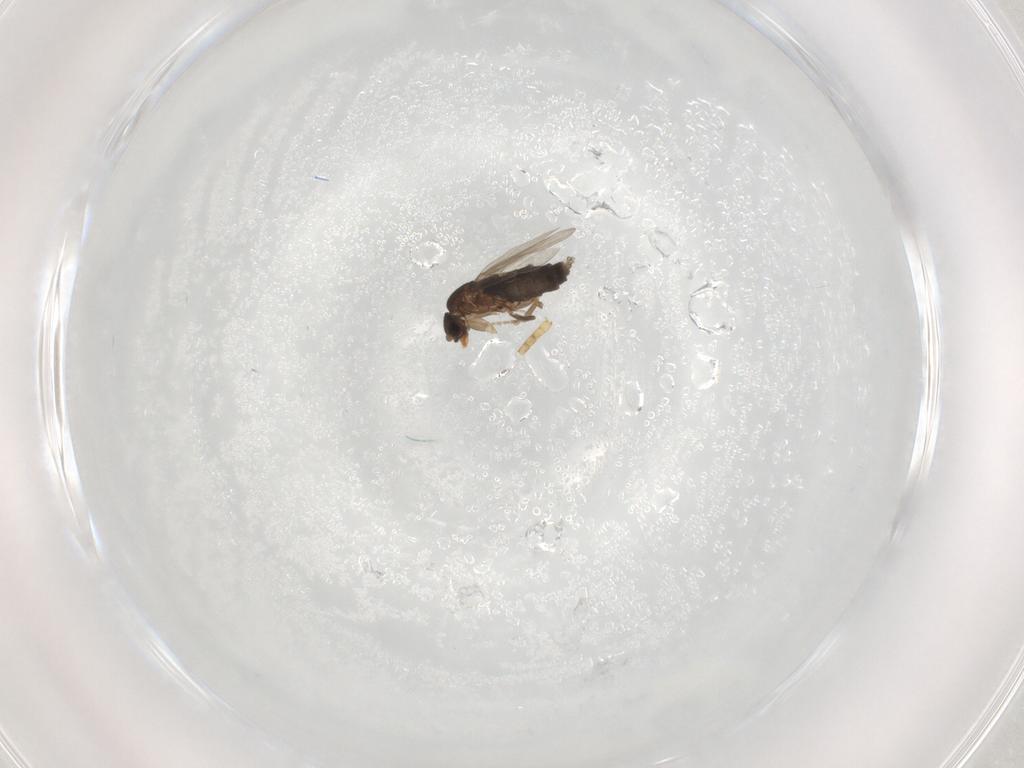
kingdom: Animalia
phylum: Arthropoda
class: Insecta
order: Diptera
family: Phoridae
